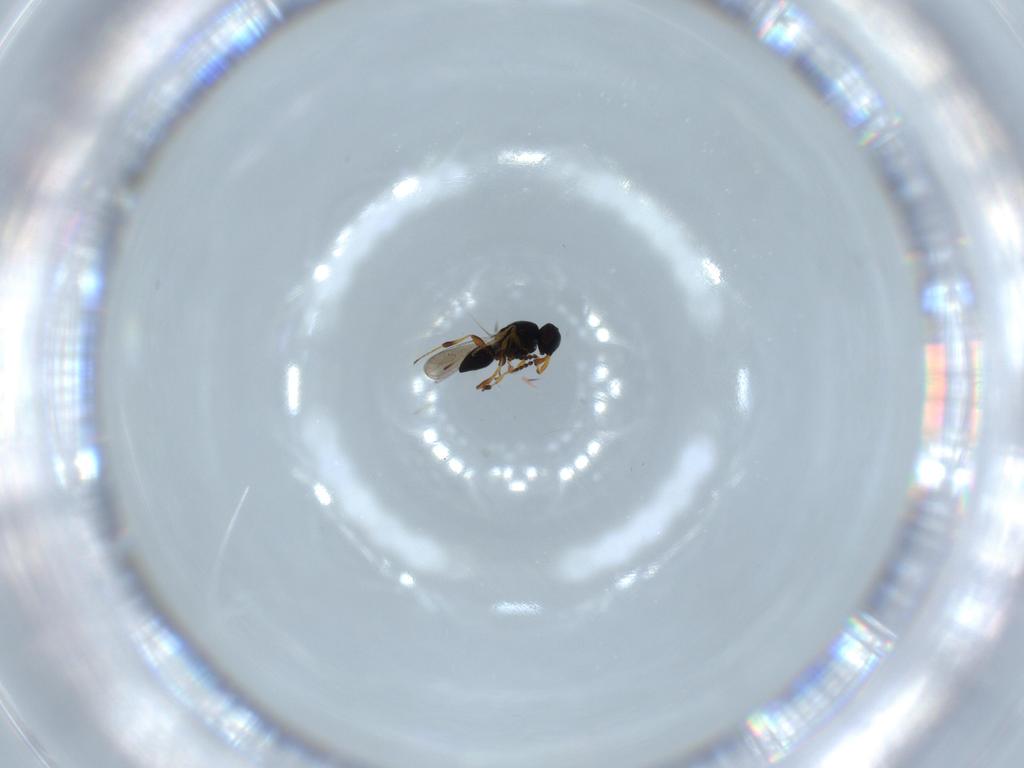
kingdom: Animalia
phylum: Arthropoda
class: Insecta
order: Hymenoptera
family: Platygastridae
